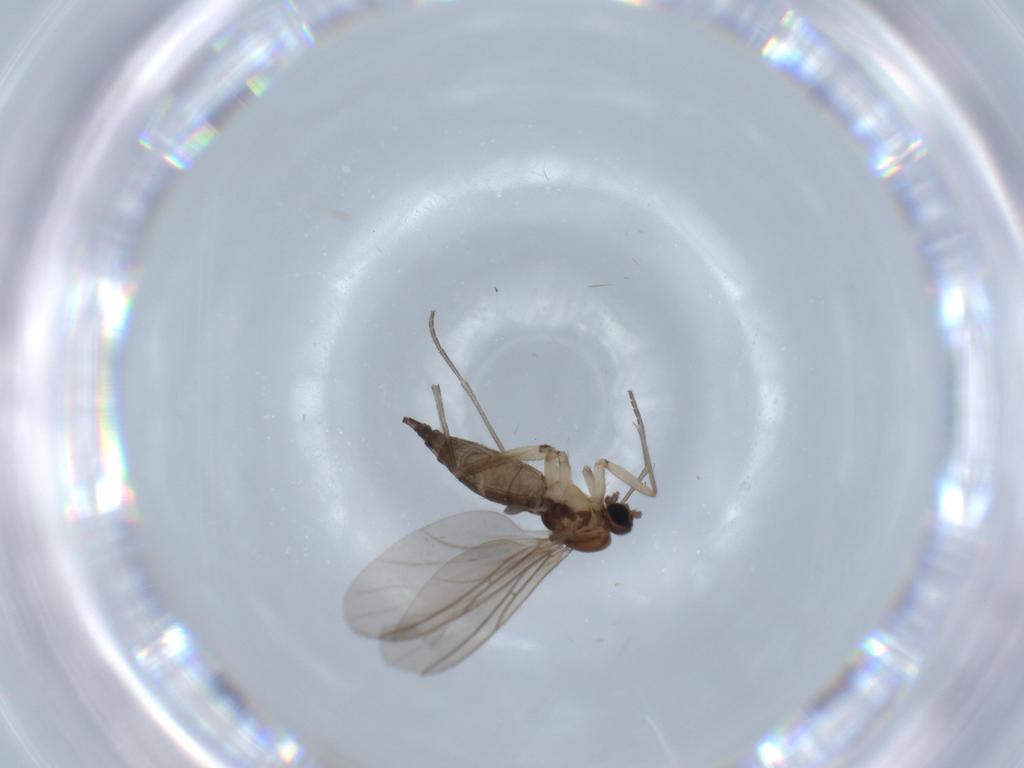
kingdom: Animalia
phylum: Arthropoda
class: Insecta
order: Diptera
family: Sciaridae
